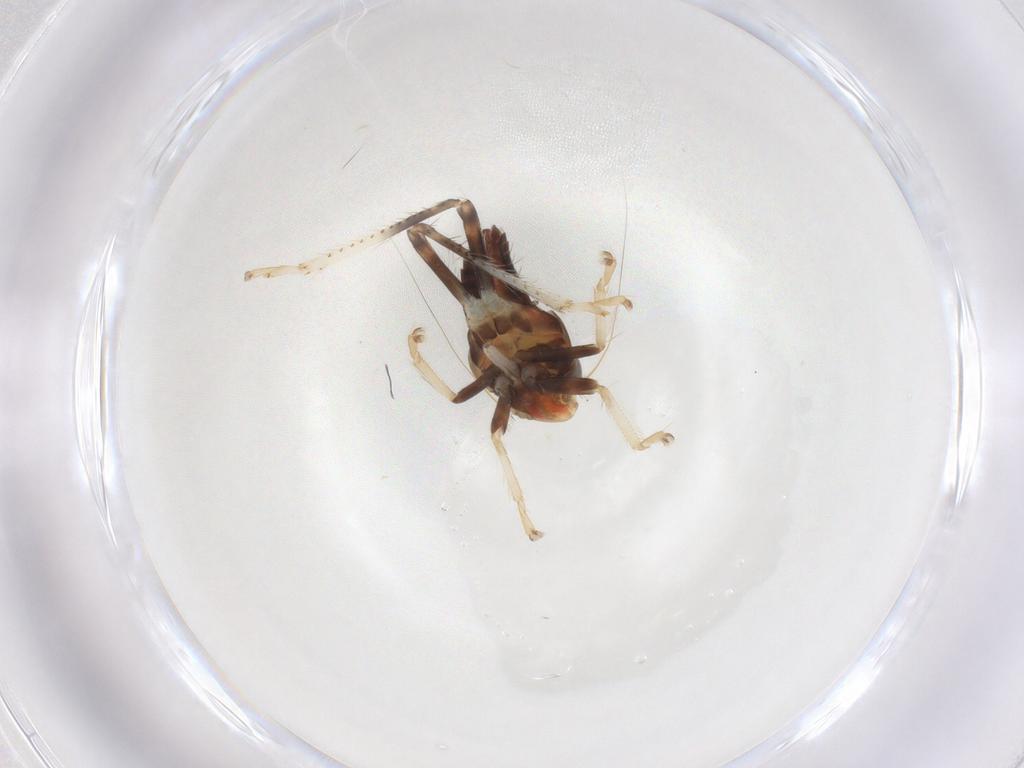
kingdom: Animalia
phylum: Arthropoda
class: Insecta
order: Hemiptera
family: Cicadellidae
